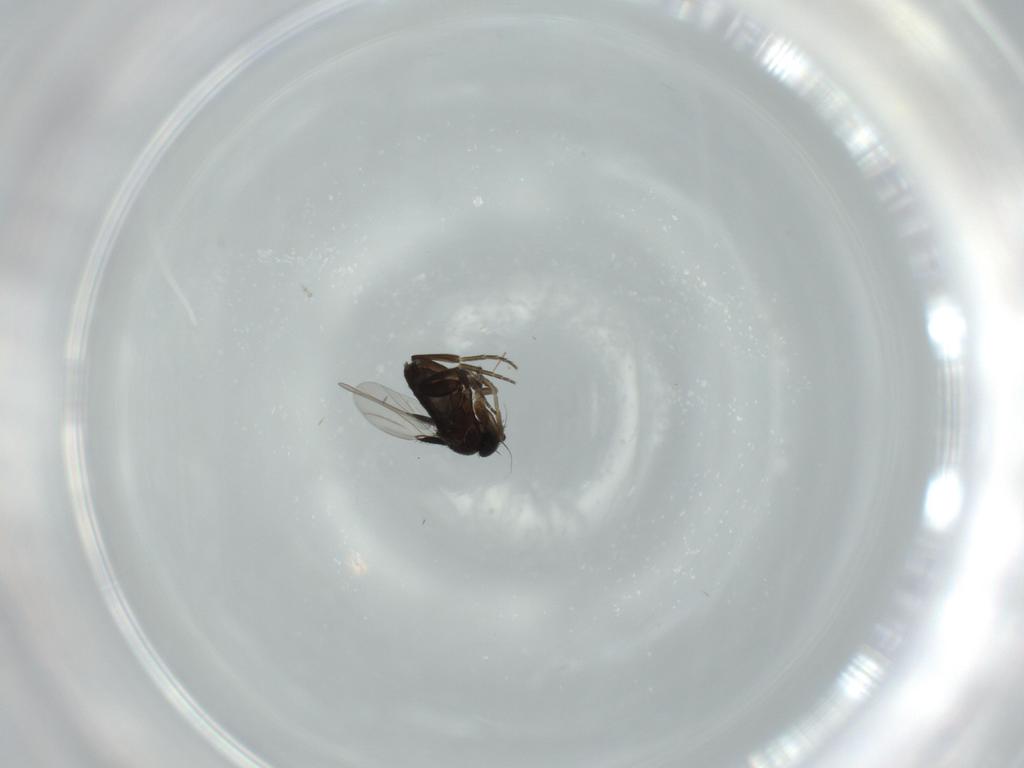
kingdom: Animalia
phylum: Arthropoda
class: Insecta
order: Diptera
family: Phoridae
